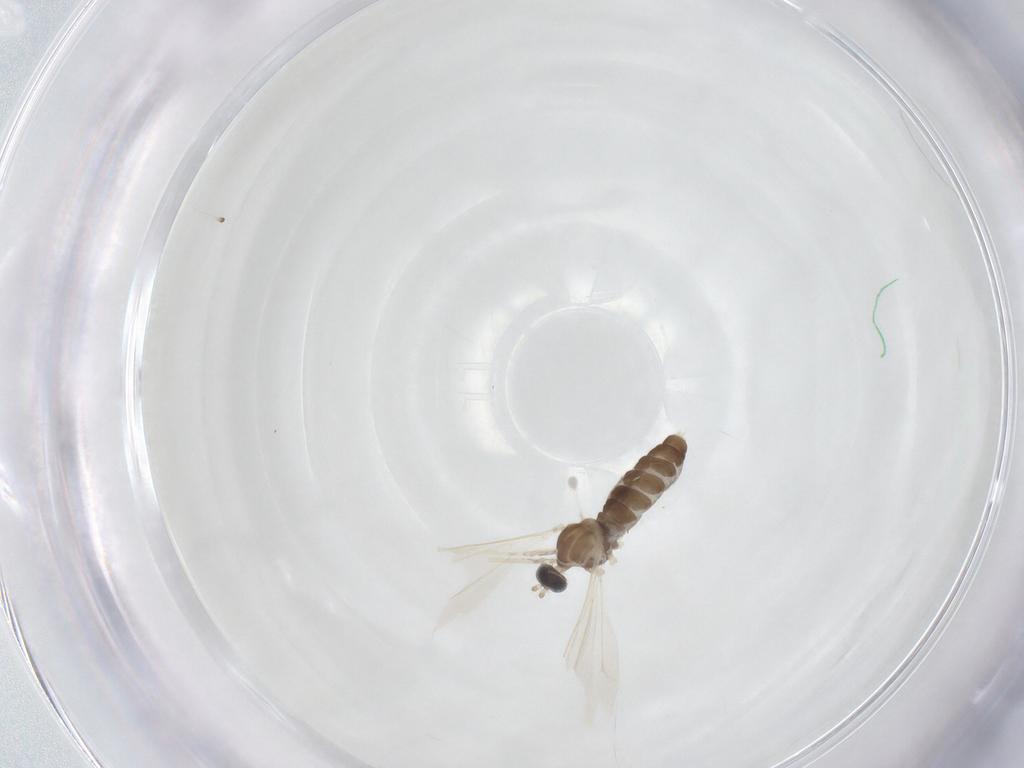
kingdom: Animalia
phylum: Arthropoda
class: Insecta
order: Diptera
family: Cecidomyiidae
